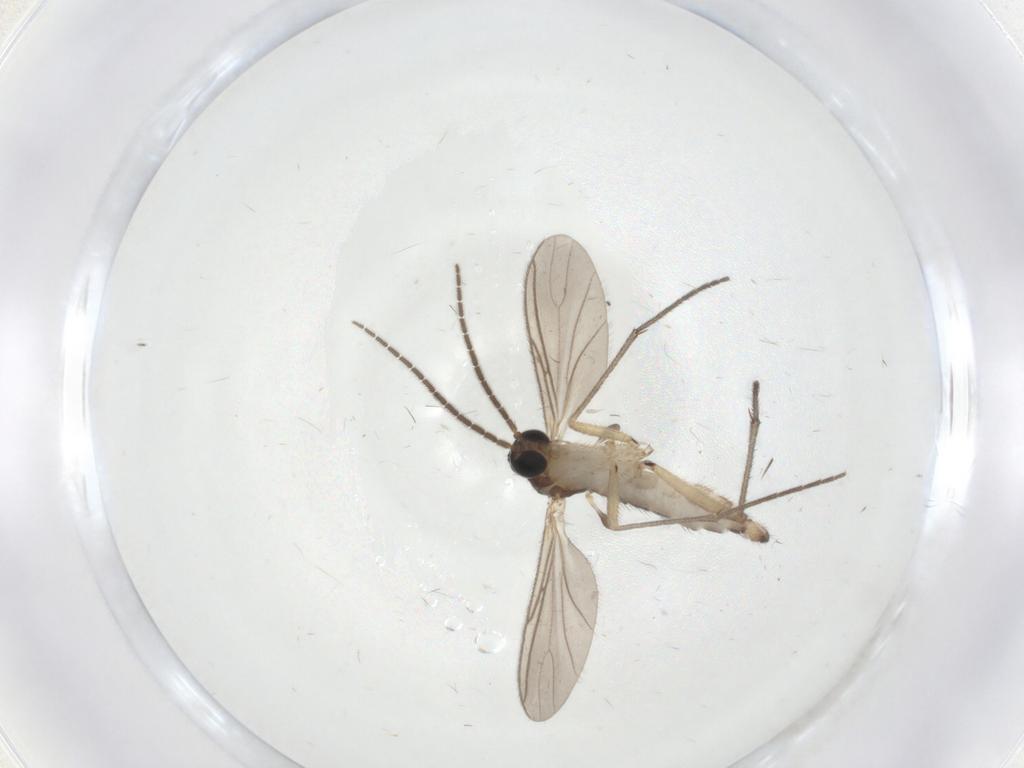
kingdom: Animalia
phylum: Arthropoda
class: Insecta
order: Diptera
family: Sciaridae
